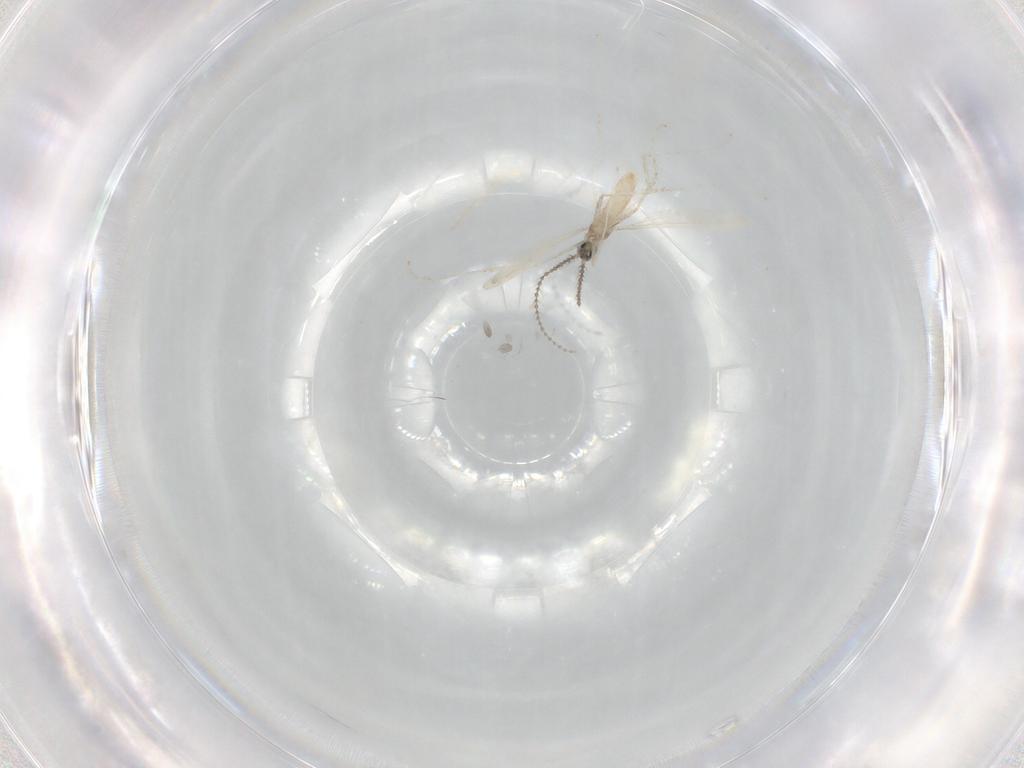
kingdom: Animalia
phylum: Arthropoda
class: Insecta
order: Diptera
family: Cecidomyiidae
